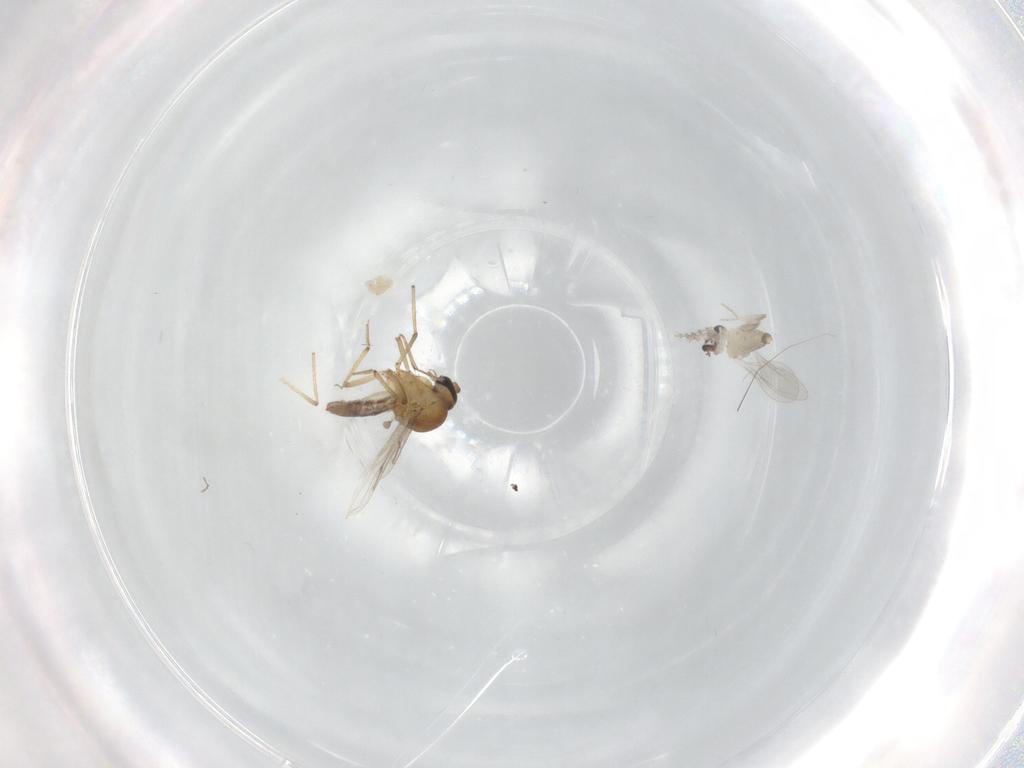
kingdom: Animalia
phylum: Arthropoda
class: Insecta
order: Diptera
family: Cecidomyiidae
